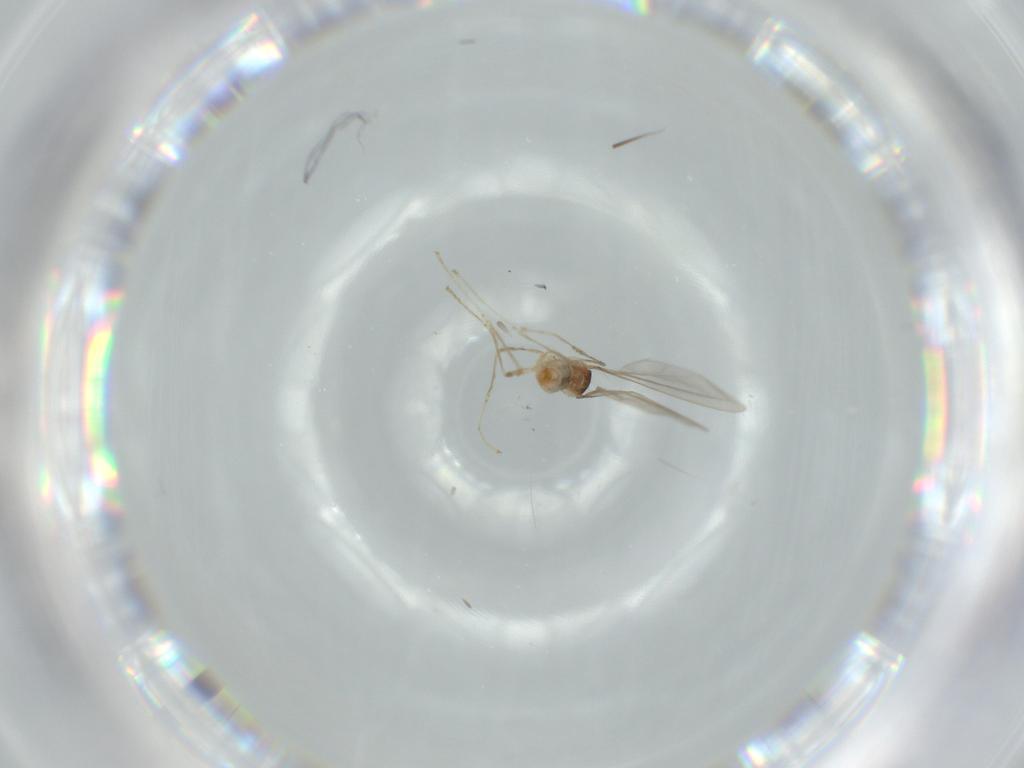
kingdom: Animalia
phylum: Arthropoda
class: Insecta
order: Diptera
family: Cecidomyiidae
